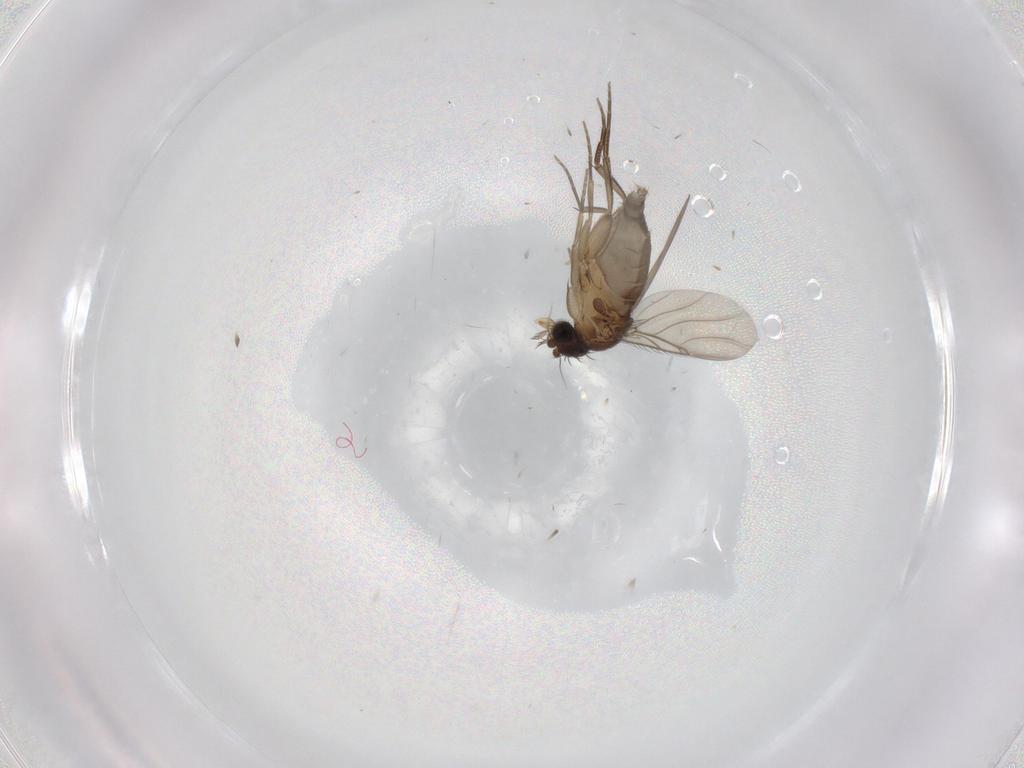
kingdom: Animalia
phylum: Arthropoda
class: Insecta
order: Diptera
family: Phoridae
